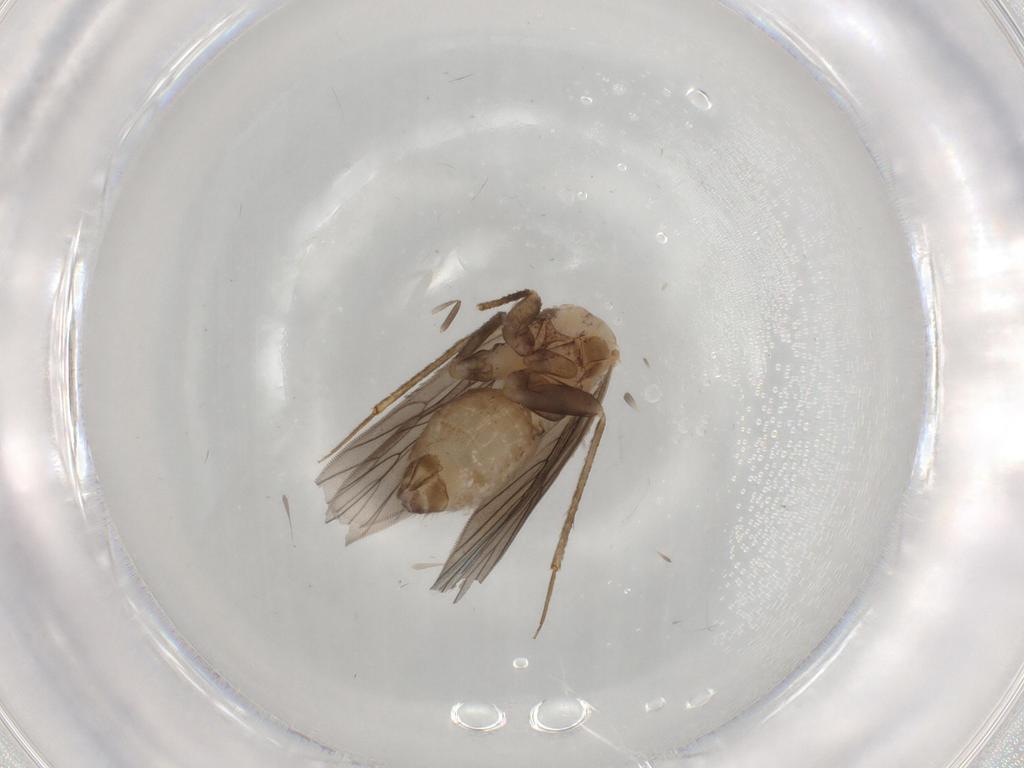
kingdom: Animalia
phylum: Arthropoda
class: Insecta
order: Psocodea
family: Lepidopsocidae
